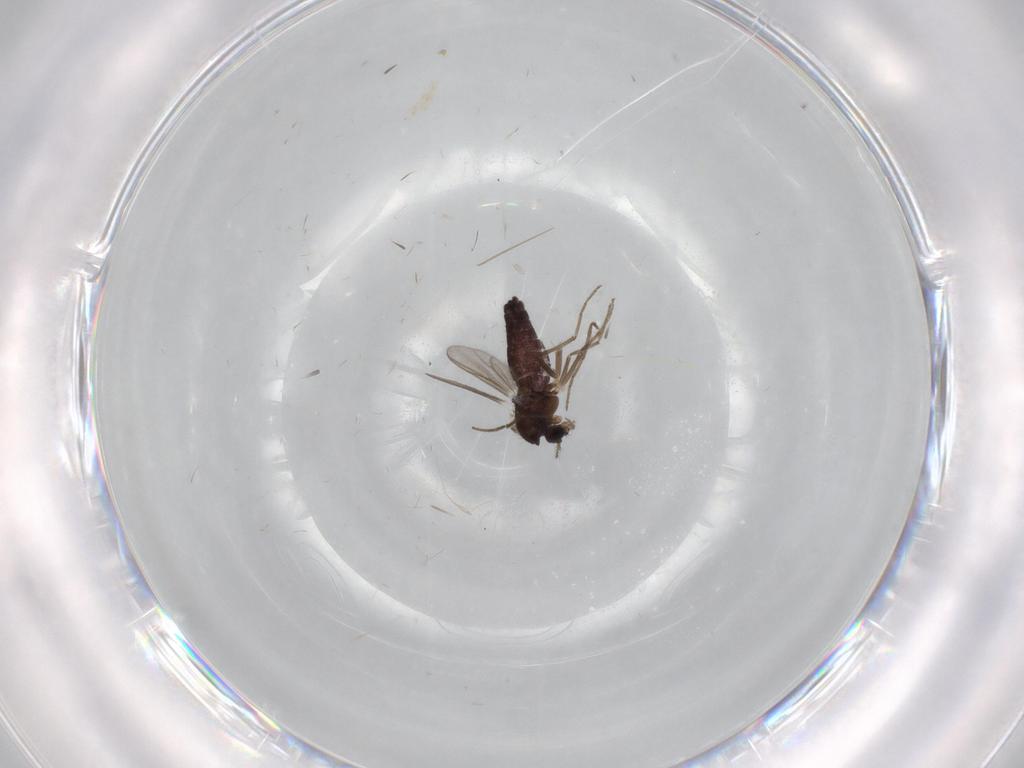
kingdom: Animalia
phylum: Arthropoda
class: Insecta
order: Diptera
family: Chironomidae
